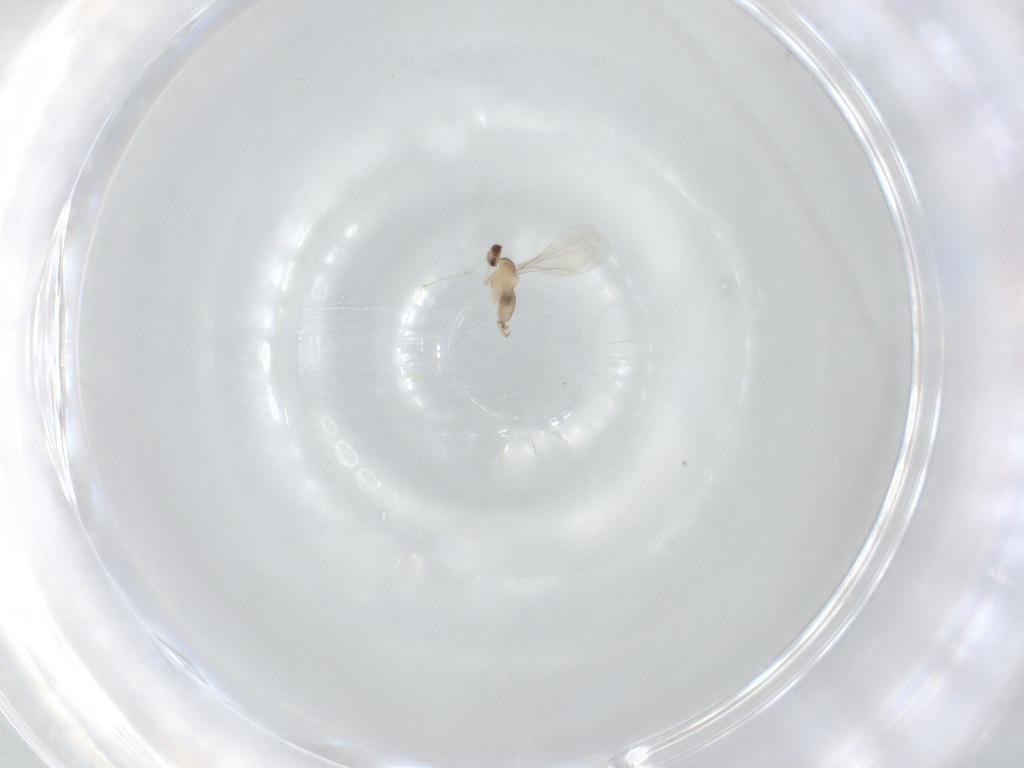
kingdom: Animalia
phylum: Arthropoda
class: Insecta
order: Diptera
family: Cecidomyiidae
